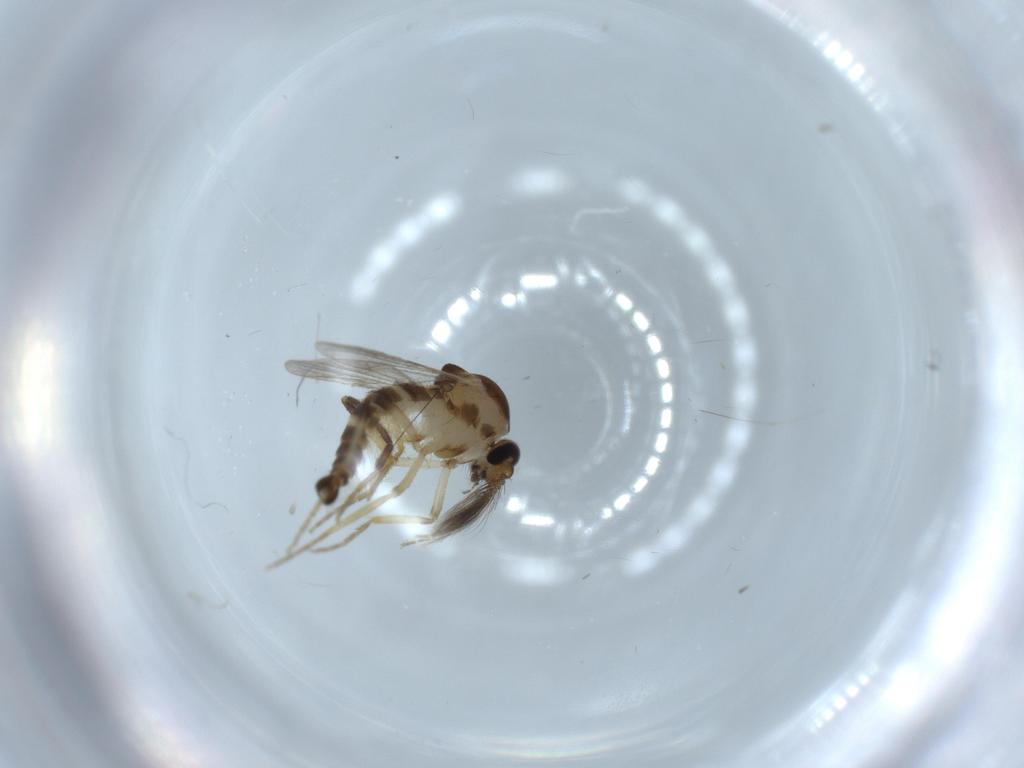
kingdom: Animalia
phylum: Arthropoda
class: Insecta
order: Diptera
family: Ceratopogonidae
